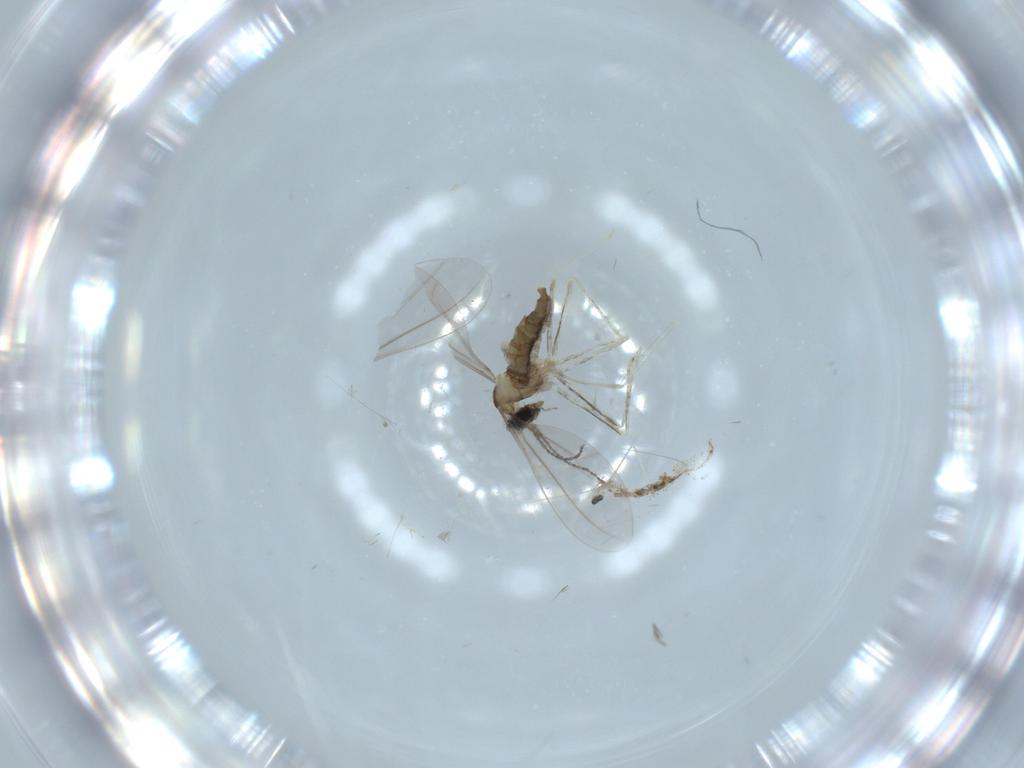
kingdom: Animalia
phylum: Arthropoda
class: Insecta
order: Diptera
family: Cecidomyiidae
